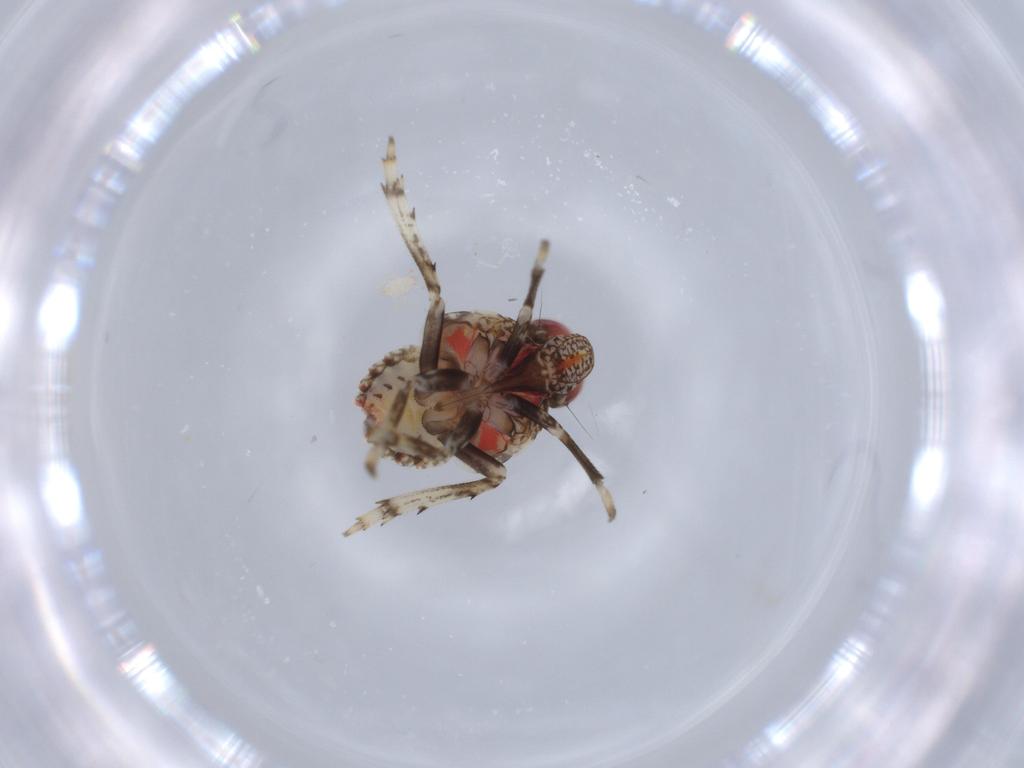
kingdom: Animalia
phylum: Arthropoda
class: Insecta
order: Hemiptera
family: Issidae
